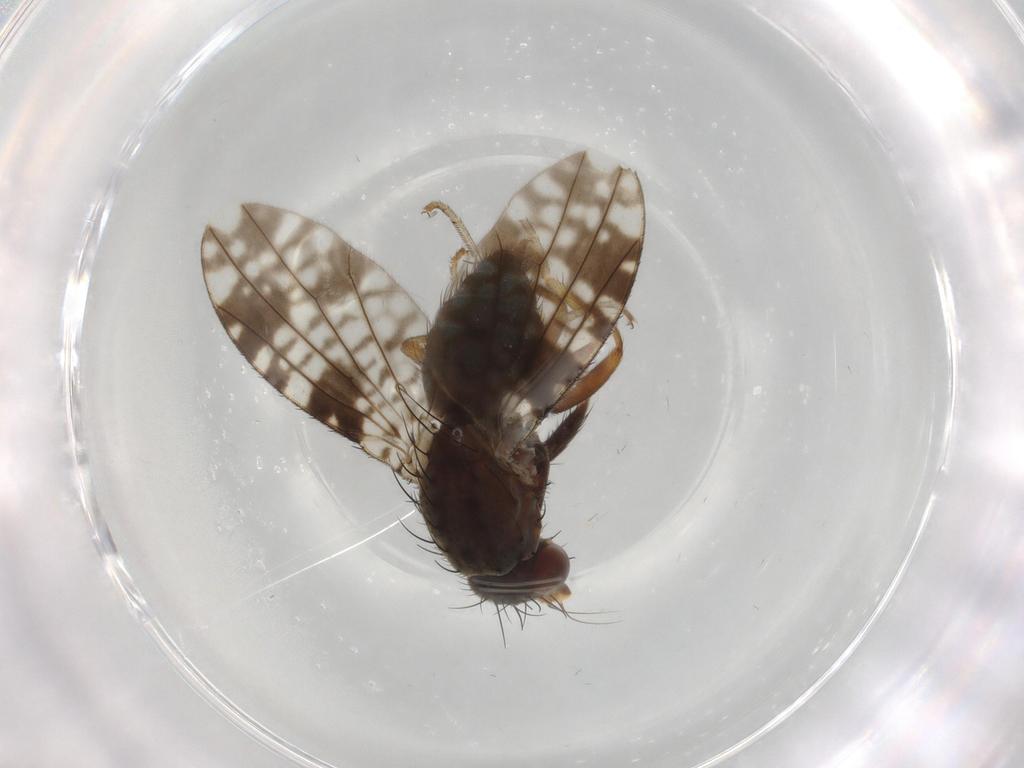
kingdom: Animalia
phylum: Arthropoda
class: Insecta
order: Diptera
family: Tephritidae
